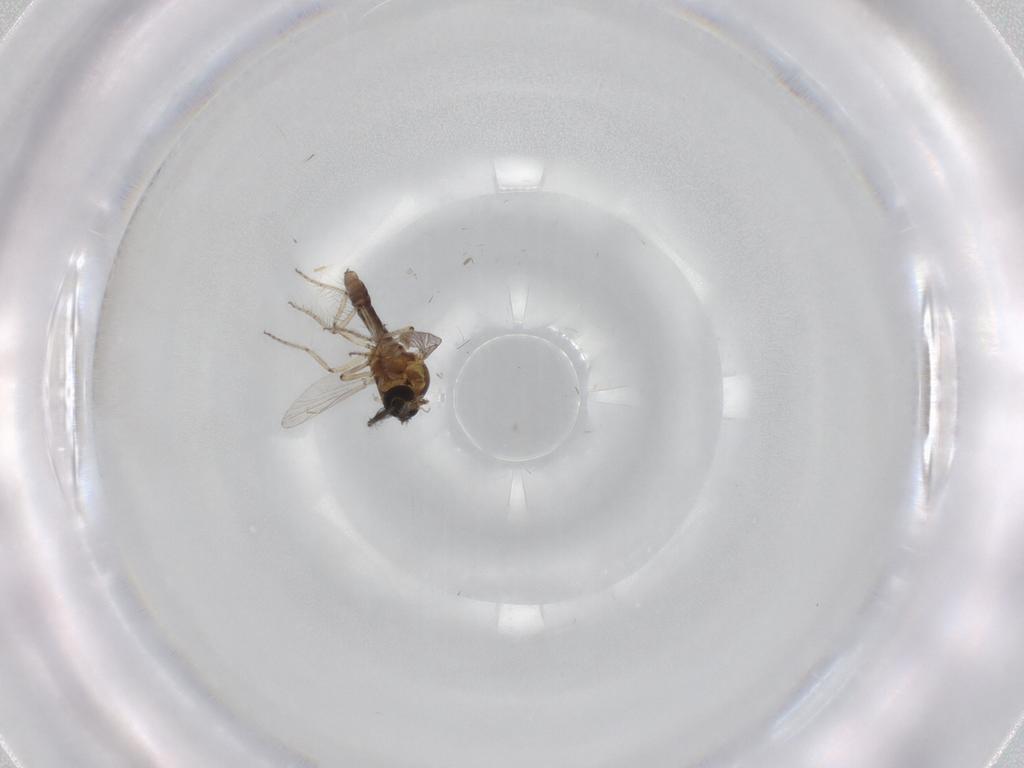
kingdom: Animalia
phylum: Arthropoda
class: Insecta
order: Diptera
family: Ceratopogonidae
